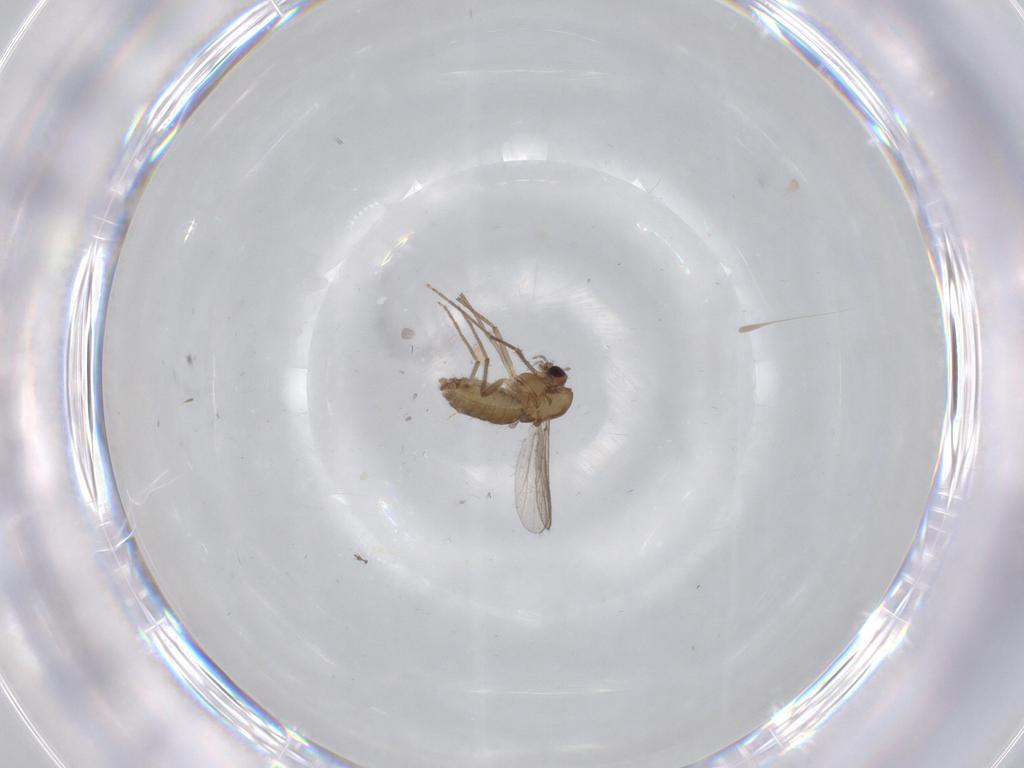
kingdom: Animalia
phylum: Arthropoda
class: Insecta
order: Diptera
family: Chironomidae
